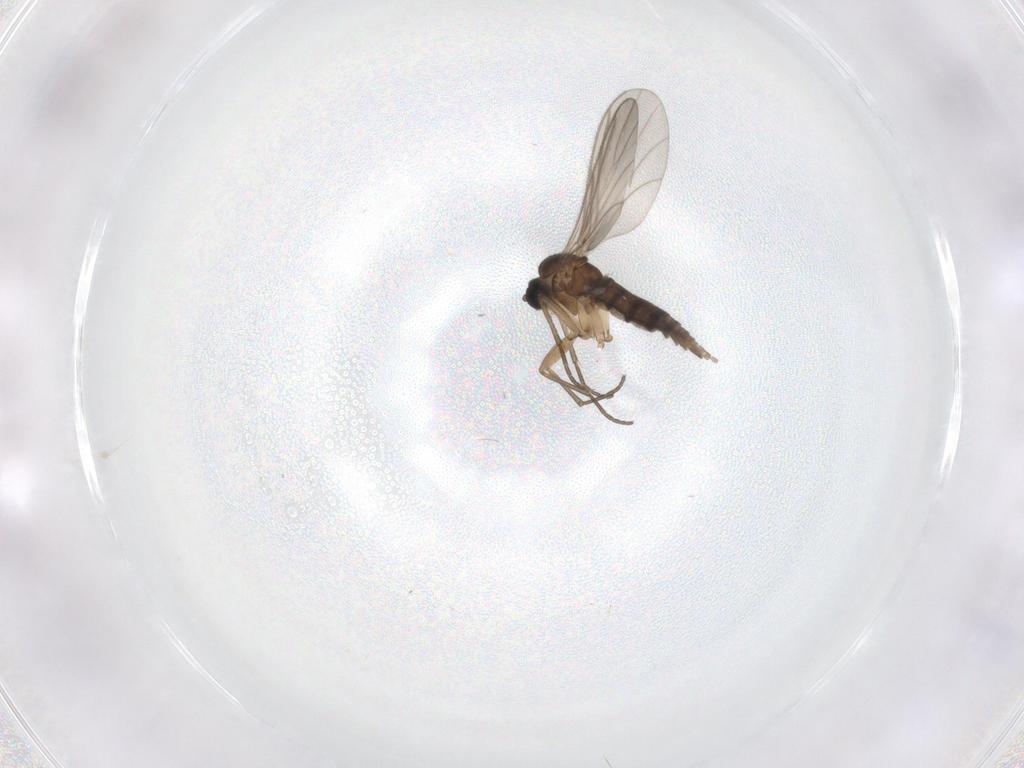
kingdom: Animalia
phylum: Arthropoda
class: Insecta
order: Diptera
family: Sciaridae
